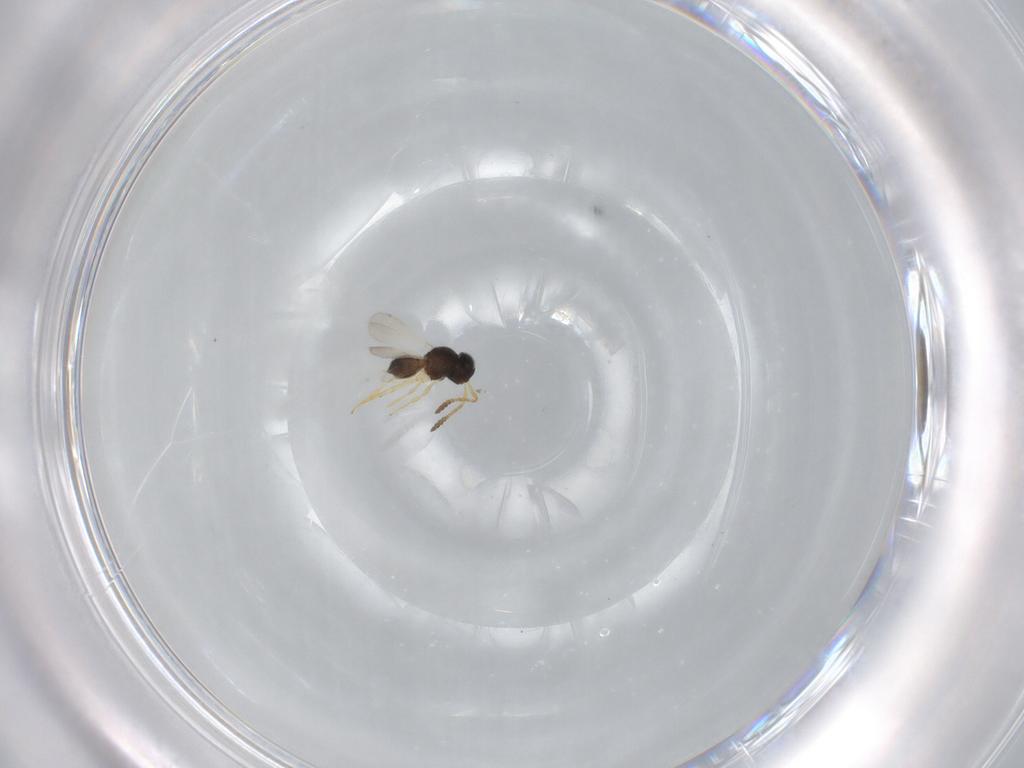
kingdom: Animalia
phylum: Arthropoda
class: Insecta
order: Hymenoptera
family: Scelionidae
